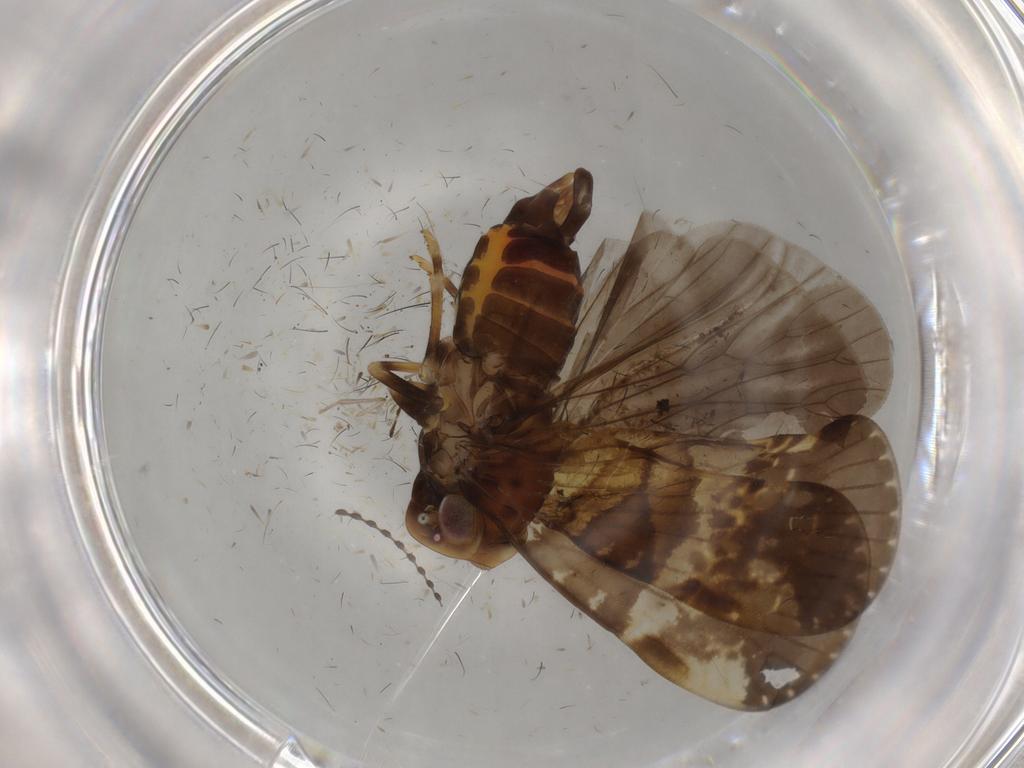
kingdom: Animalia
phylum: Arthropoda
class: Insecta
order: Hemiptera
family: Cixiidae
